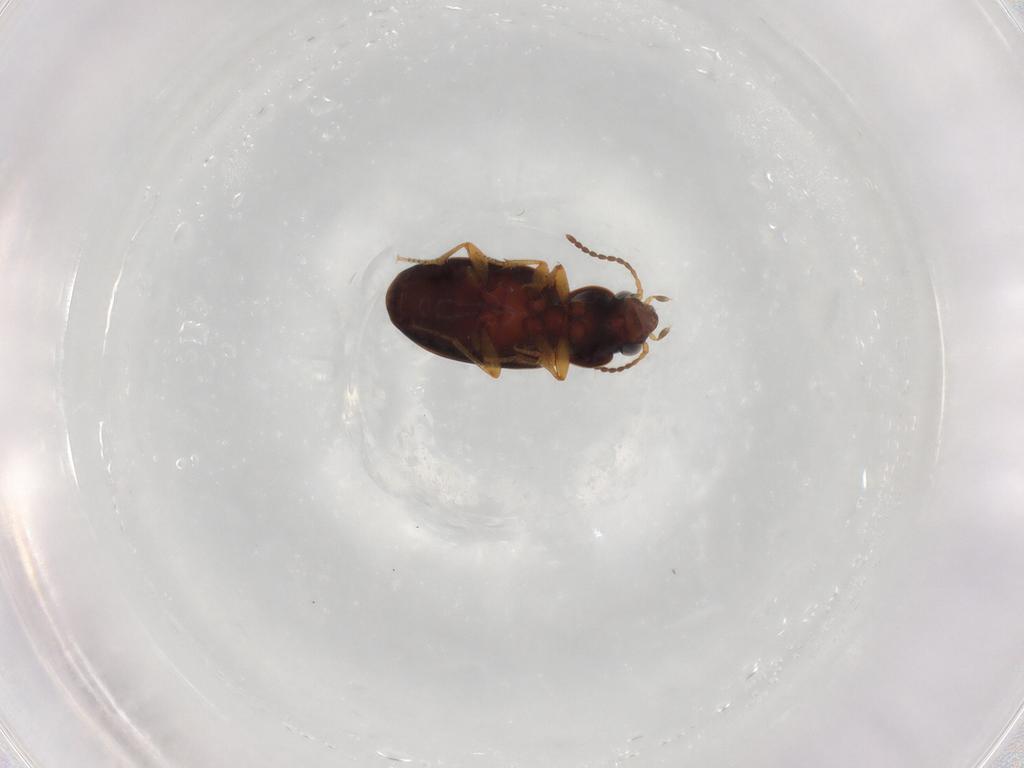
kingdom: Animalia
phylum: Arthropoda
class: Insecta
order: Coleoptera
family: Carabidae
